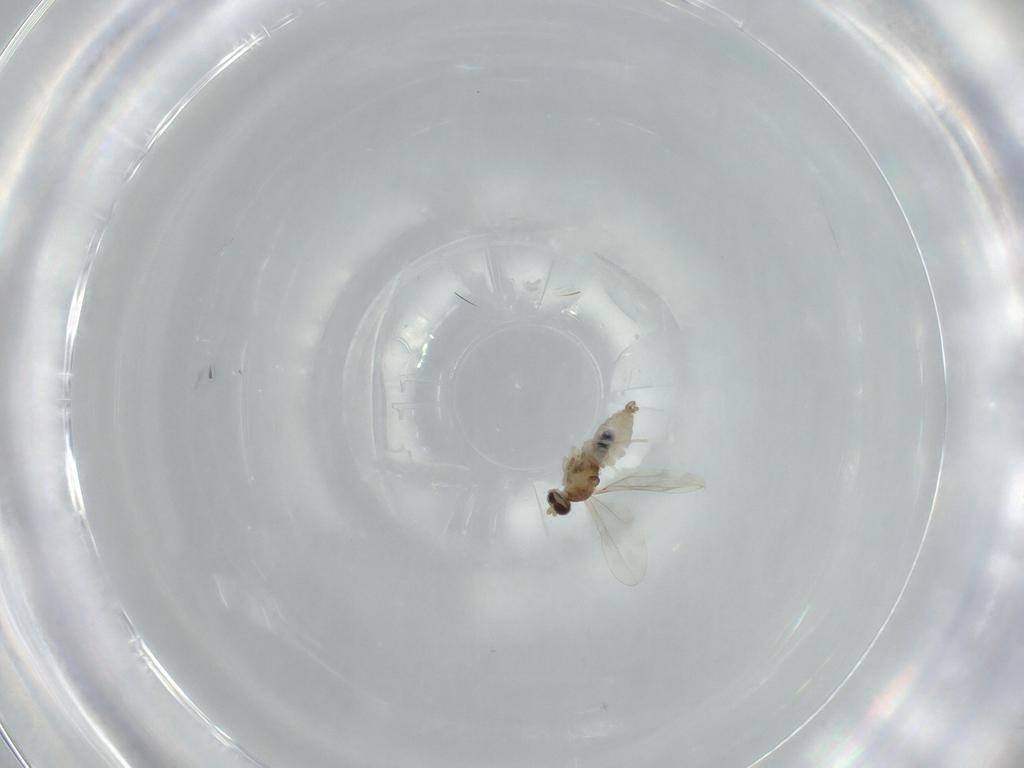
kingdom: Animalia
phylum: Arthropoda
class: Insecta
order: Diptera
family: Cecidomyiidae
